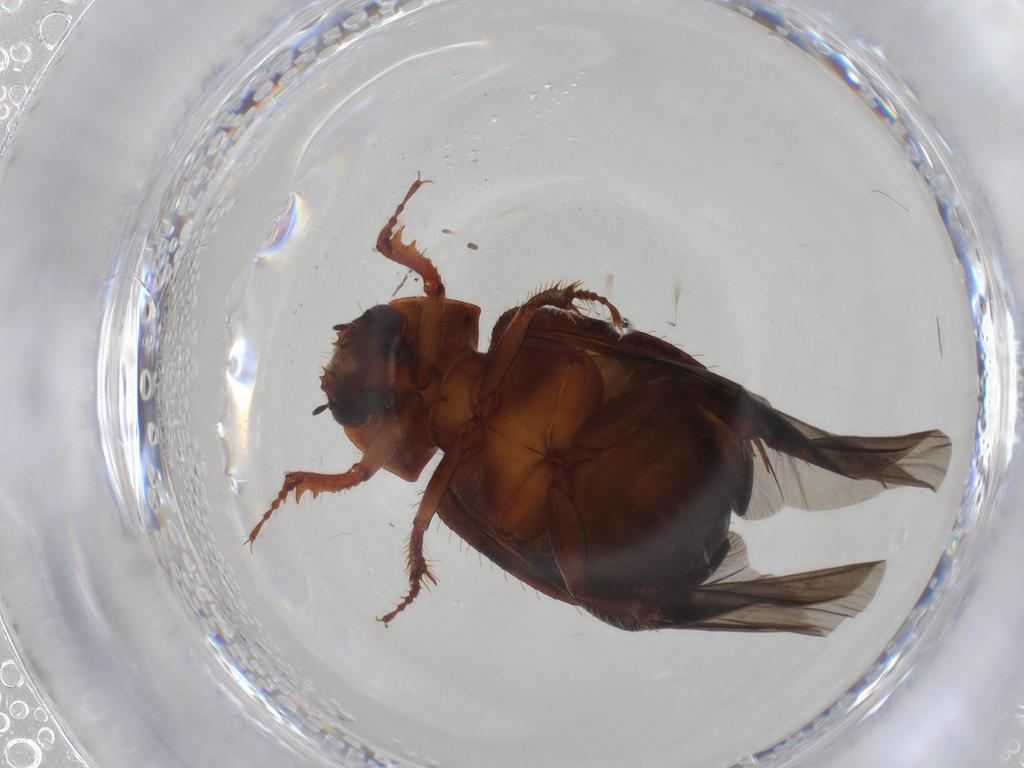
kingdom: Animalia
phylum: Arthropoda
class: Insecta
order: Coleoptera
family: Hybosoridae
